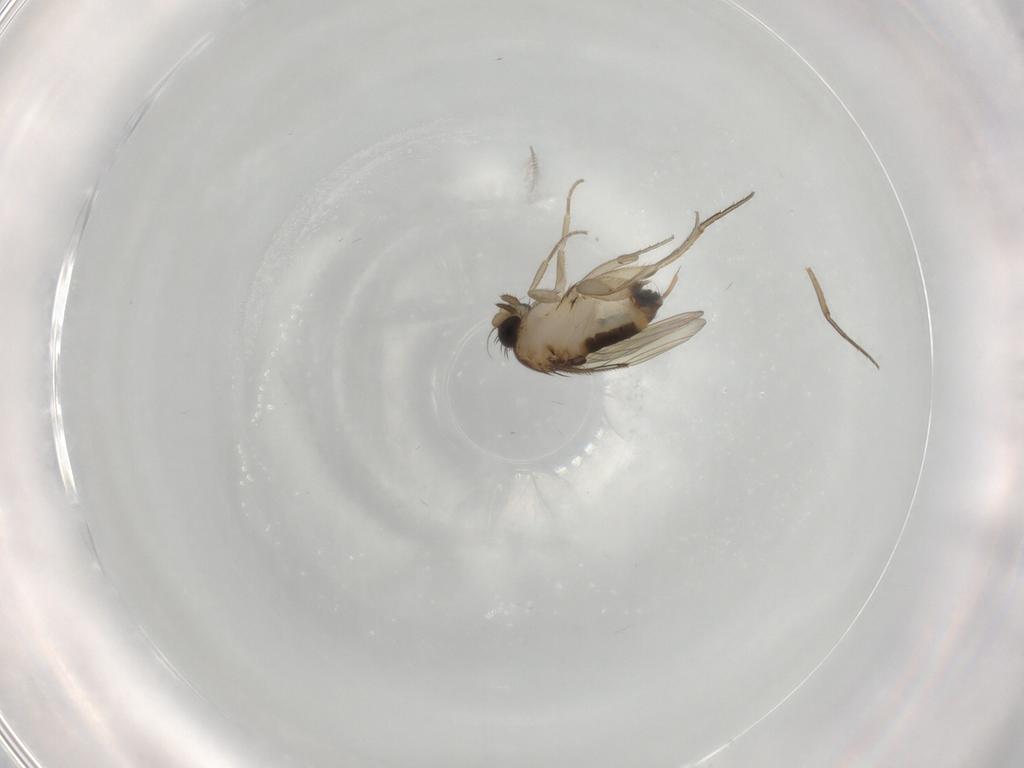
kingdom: Animalia
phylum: Arthropoda
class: Insecta
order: Diptera
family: Chironomidae
